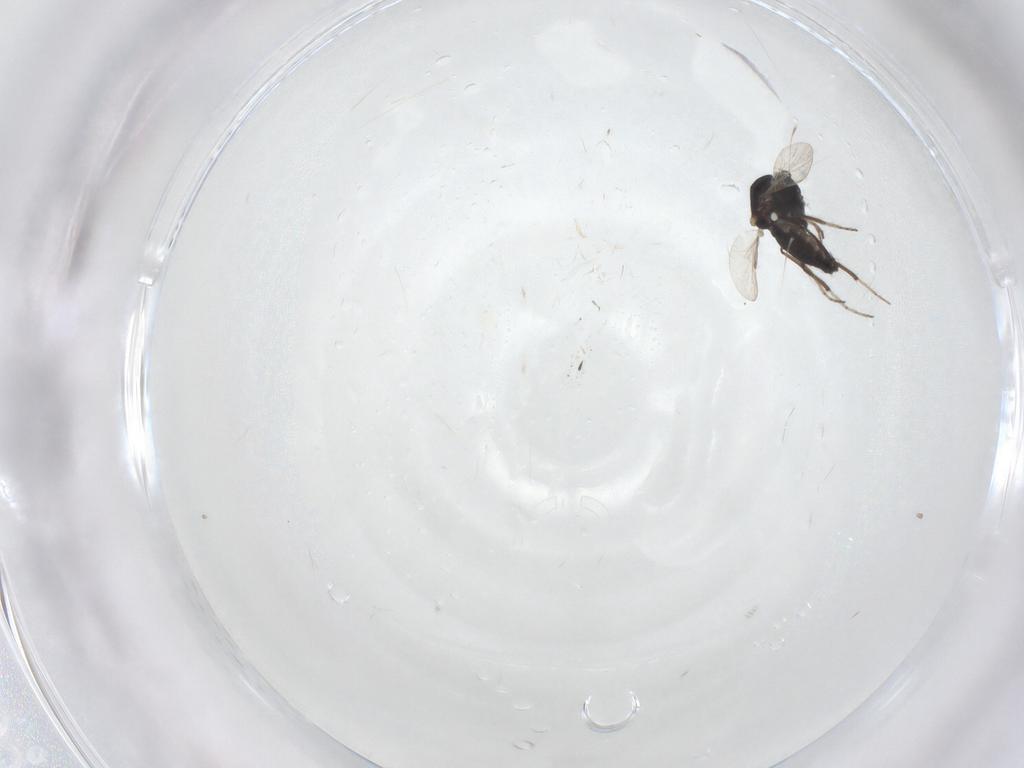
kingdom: Animalia
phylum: Arthropoda
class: Insecta
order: Diptera
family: Ceratopogonidae
